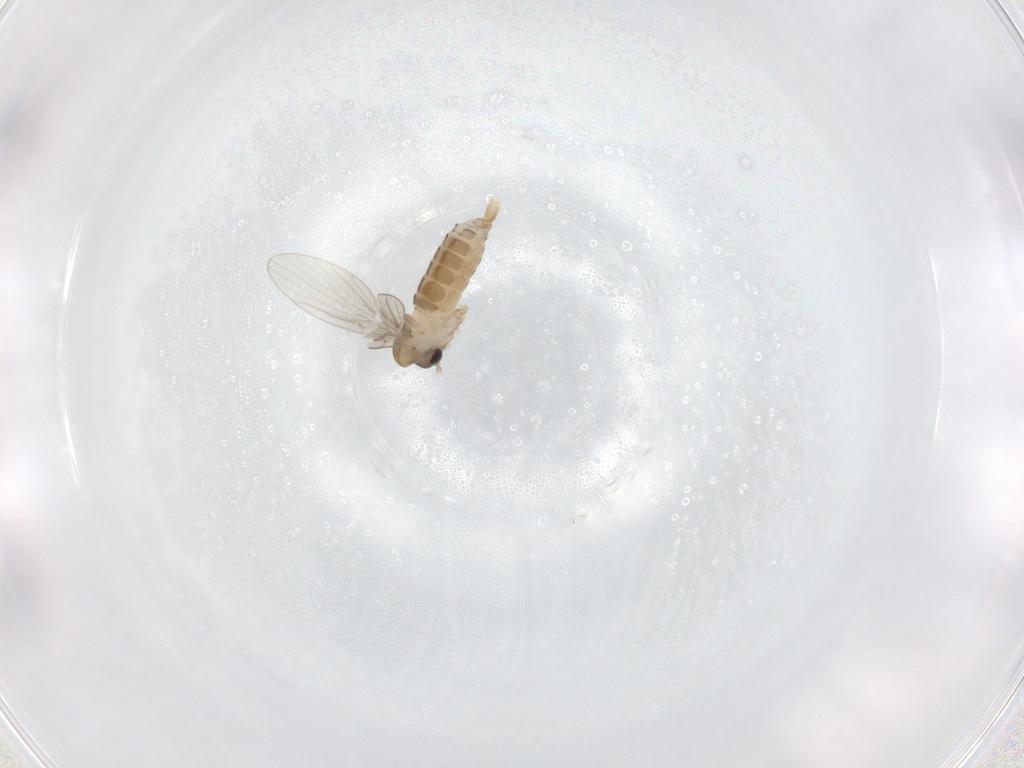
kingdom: Animalia
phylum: Arthropoda
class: Insecta
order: Diptera
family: Psychodidae
